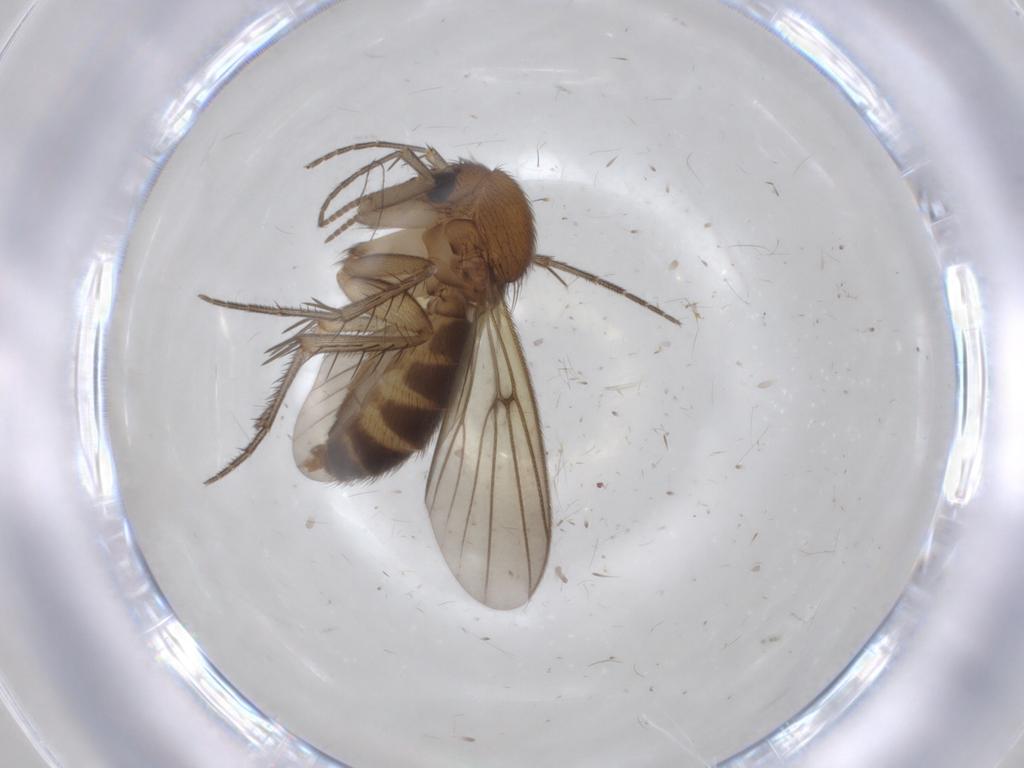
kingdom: Animalia
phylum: Arthropoda
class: Insecta
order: Diptera
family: Mycetophilidae
